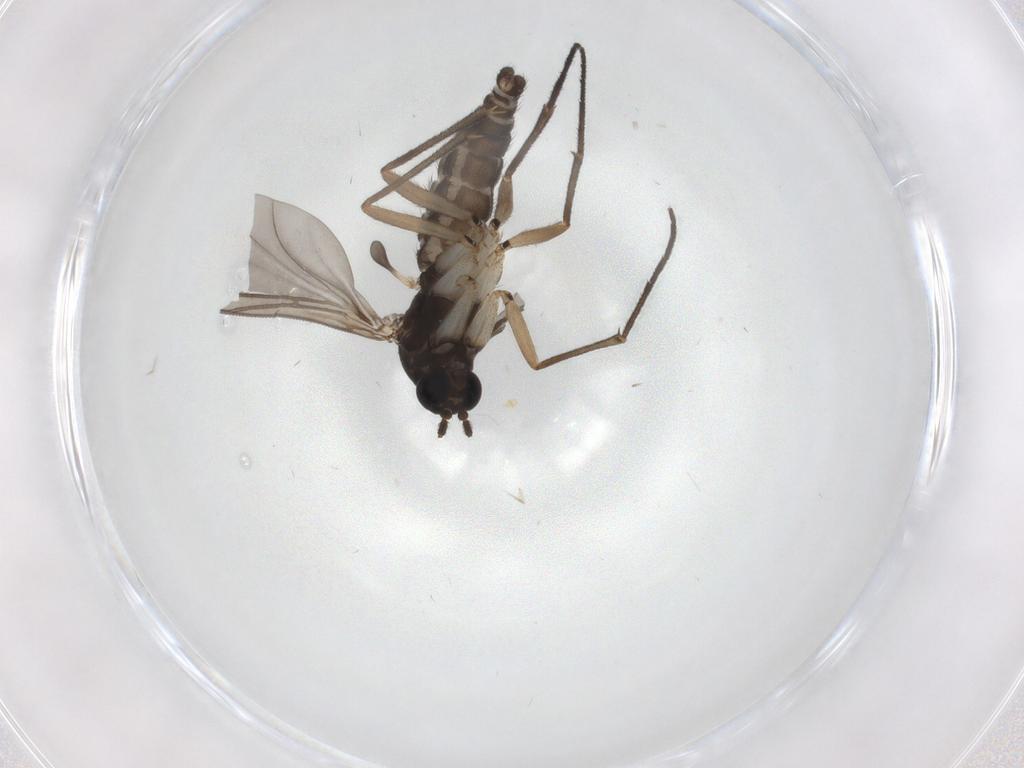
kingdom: Animalia
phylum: Arthropoda
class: Insecta
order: Diptera
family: Sciaridae
